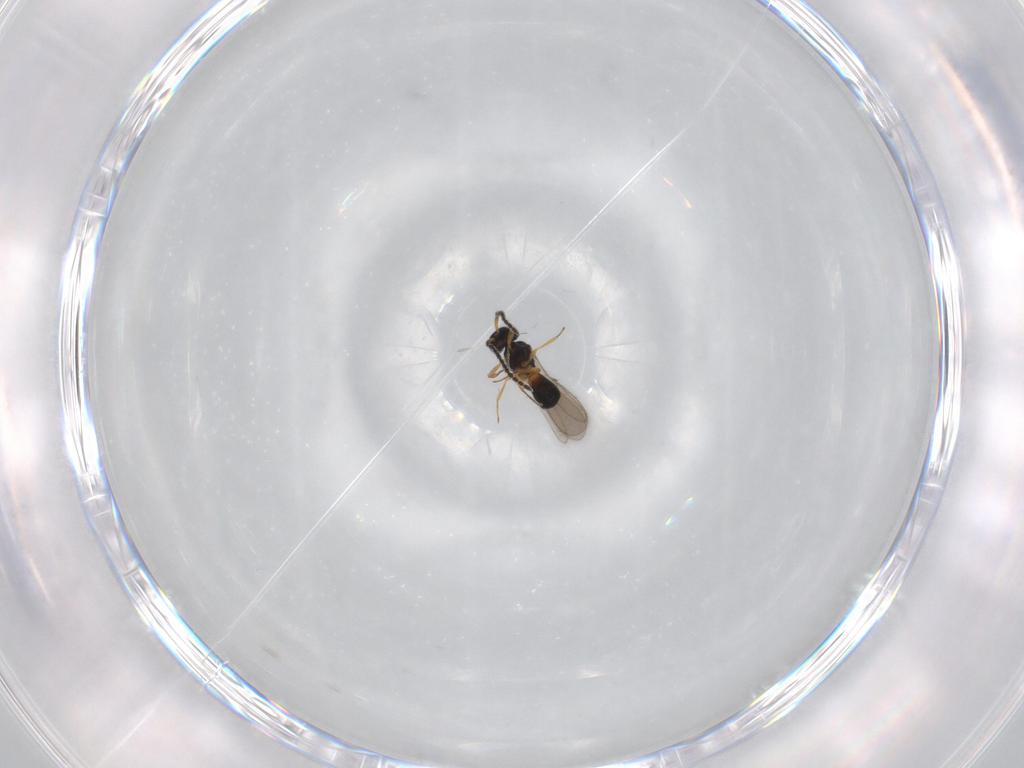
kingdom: Animalia
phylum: Arthropoda
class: Insecta
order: Hymenoptera
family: Scelionidae
